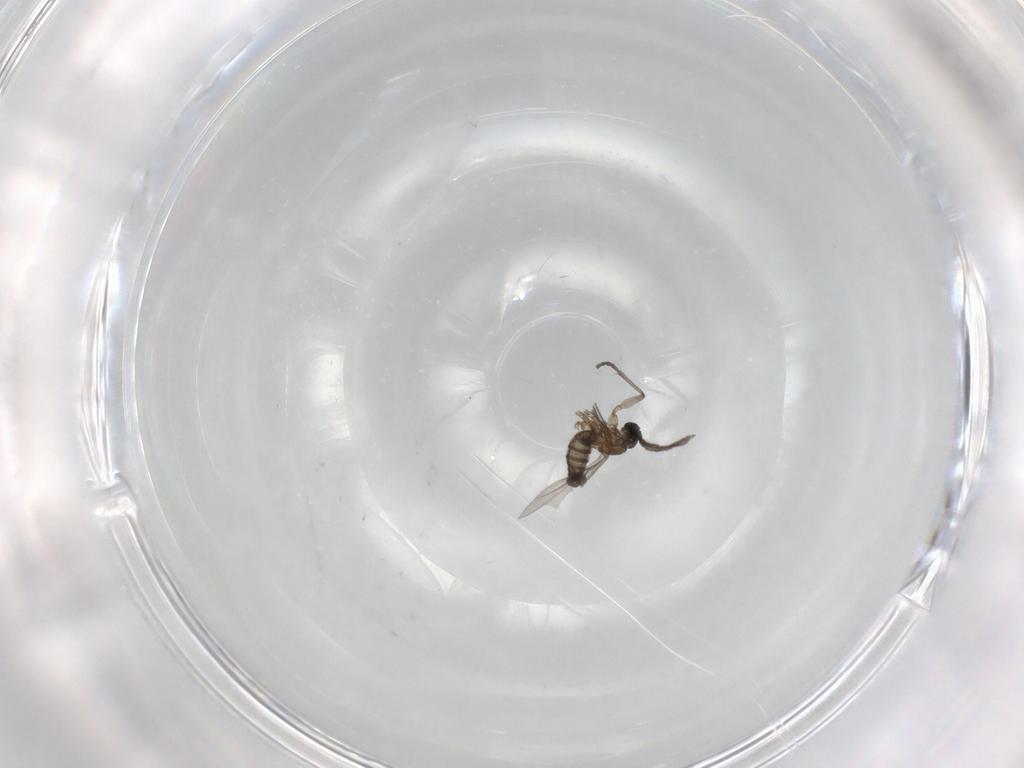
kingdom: Animalia
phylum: Arthropoda
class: Insecta
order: Diptera
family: Sciaridae
